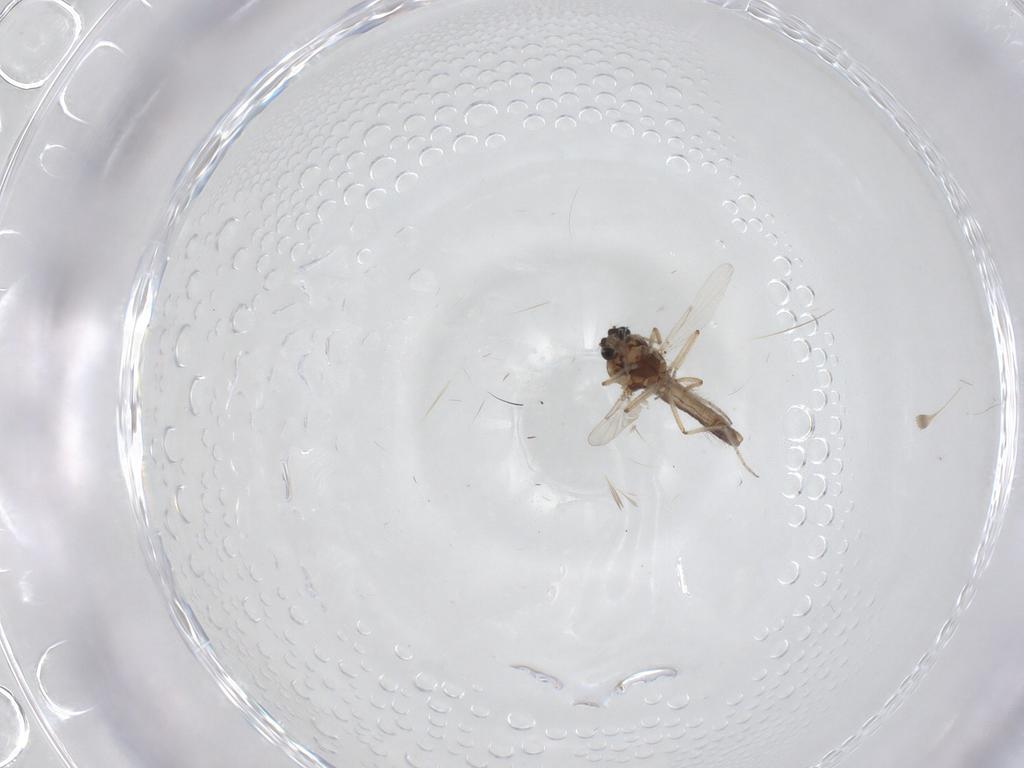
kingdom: Animalia
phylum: Arthropoda
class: Insecta
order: Diptera
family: Ceratopogonidae
